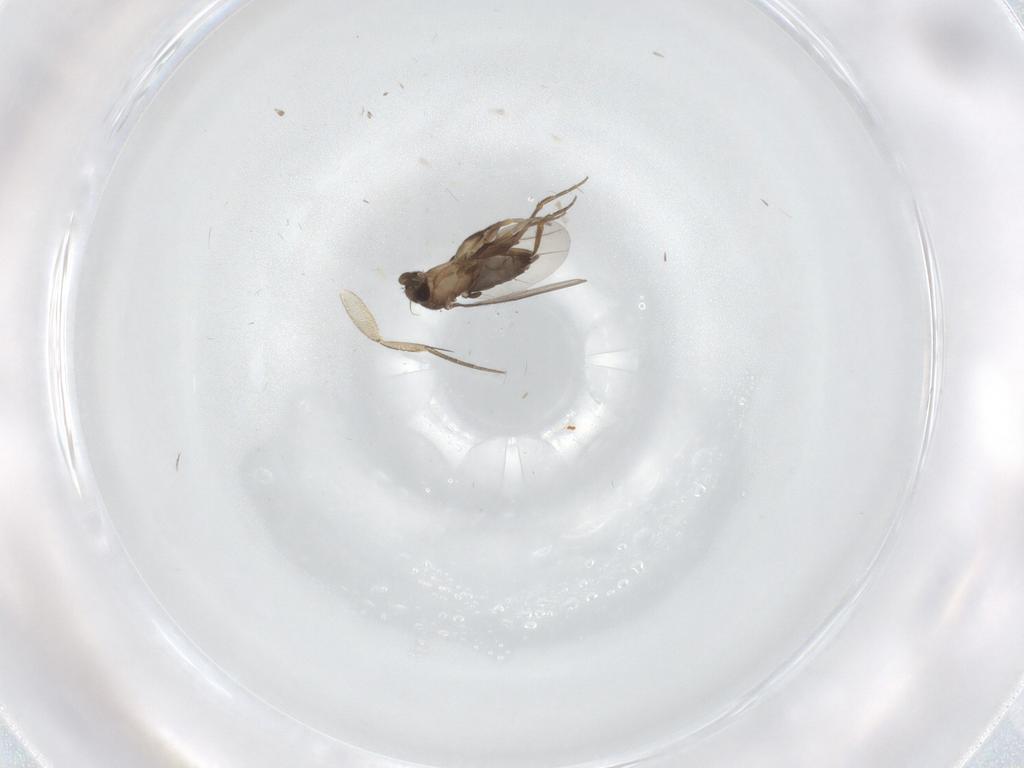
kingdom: Animalia
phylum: Arthropoda
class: Insecta
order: Diptera
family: Phoridae
